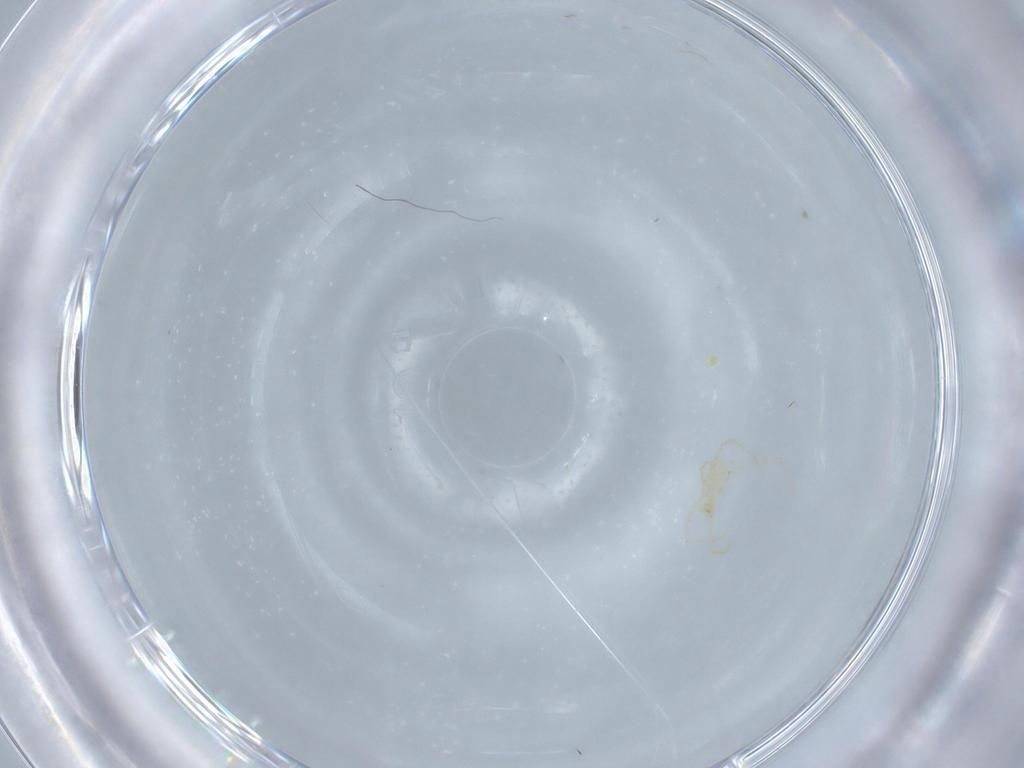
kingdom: Animalia
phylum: Arthropoda
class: Arachnida
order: Trombidiformes
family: Erythraeidae
